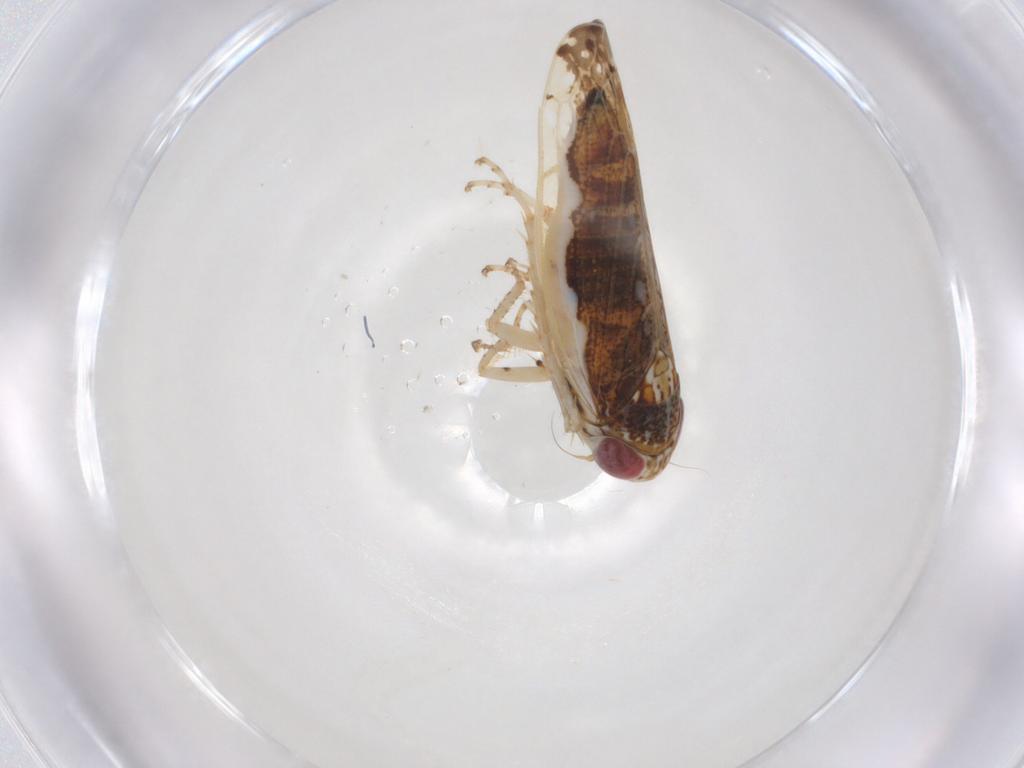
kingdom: Animalia
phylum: Arthropoda
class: Insecta
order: Hemiptera
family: Cicadellidae
